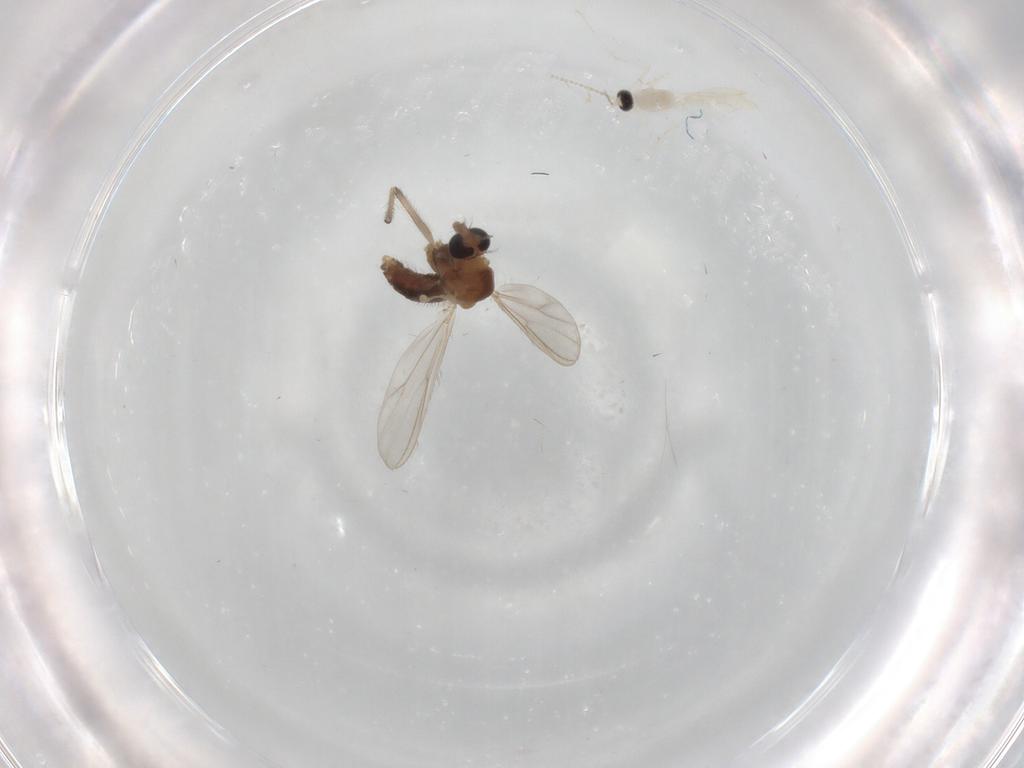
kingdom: Animalia
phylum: Arthropoda
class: Insecta
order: Diptera
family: Cecidomyiidae
